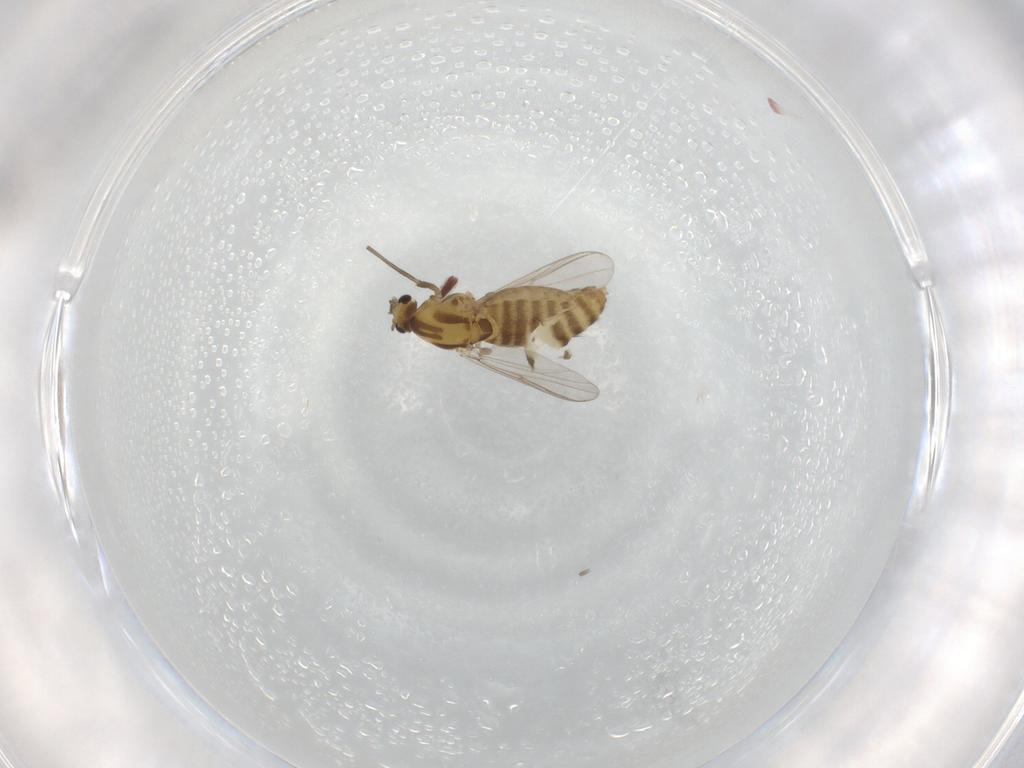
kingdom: Animalia
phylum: Arthropoda
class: Insecta
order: Diptera
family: Chironomidae
